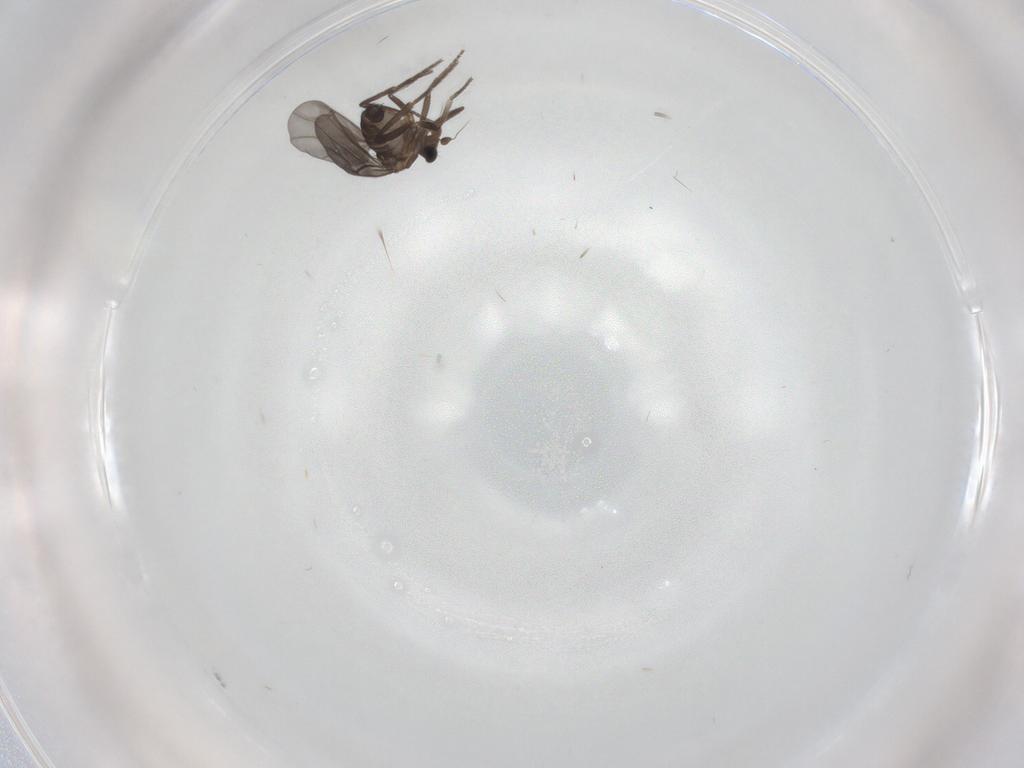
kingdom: Animalia
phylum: Arthropoda
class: Insecta
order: Diptera
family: Phoridae
